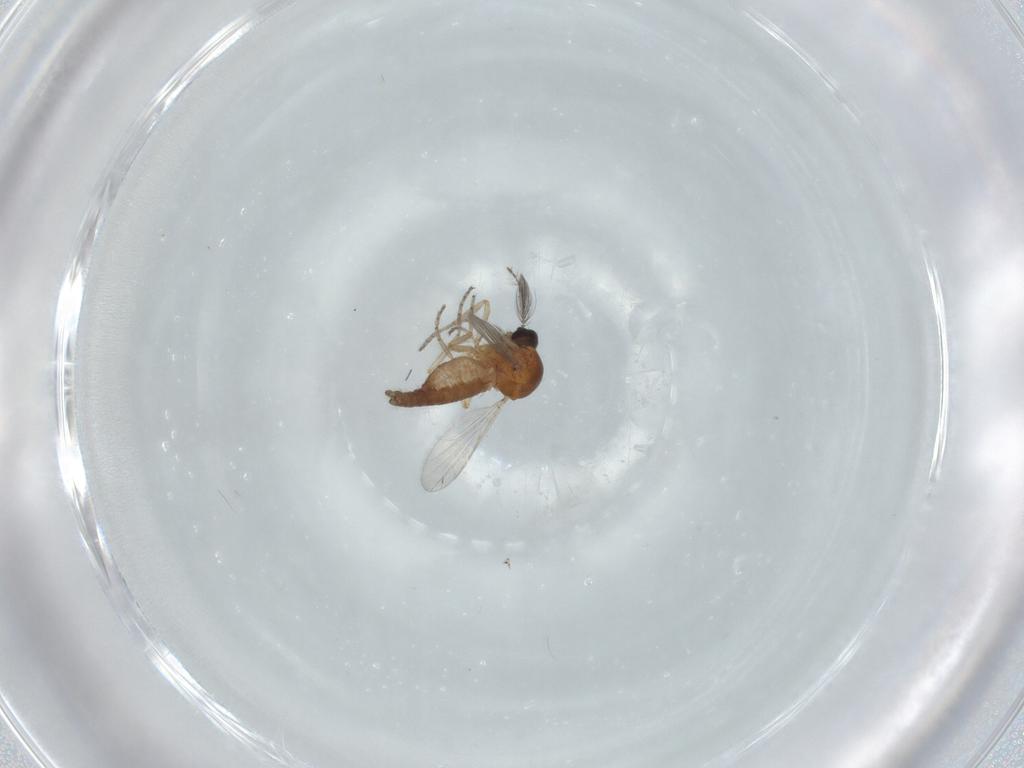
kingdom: Animalia
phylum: Arthropoda
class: Insecta
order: Diptera
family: Ceratopogonidae
